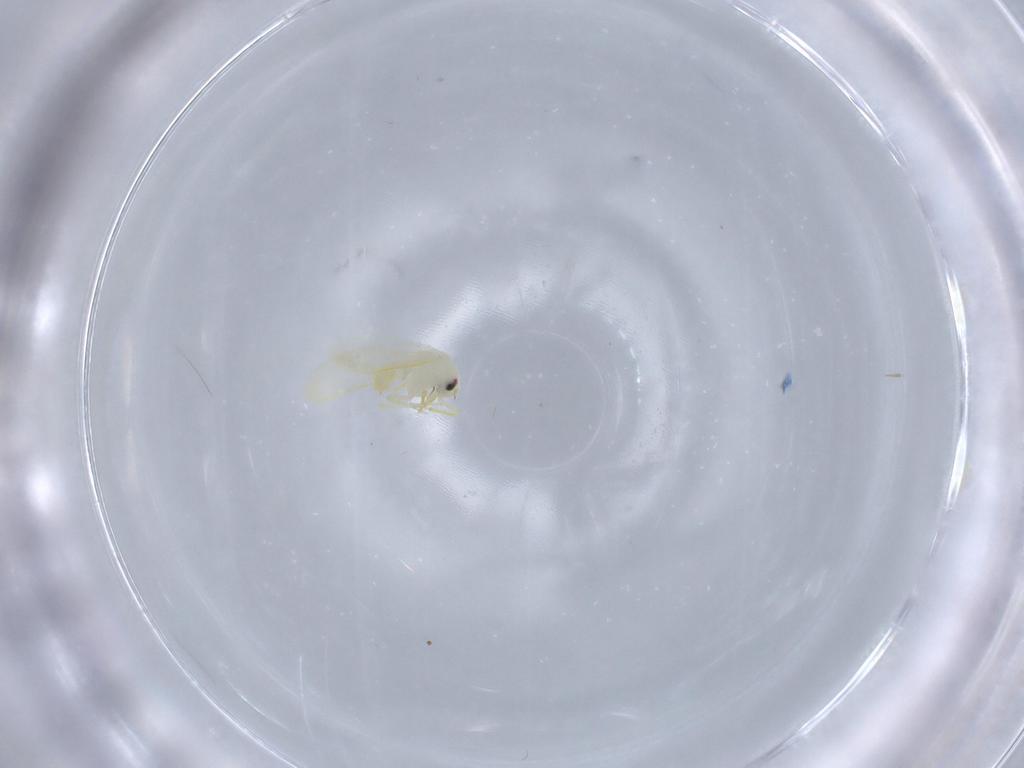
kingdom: Animalia
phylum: Arthropoda
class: Insecta
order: Hemiptera
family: Aleyrodidae
